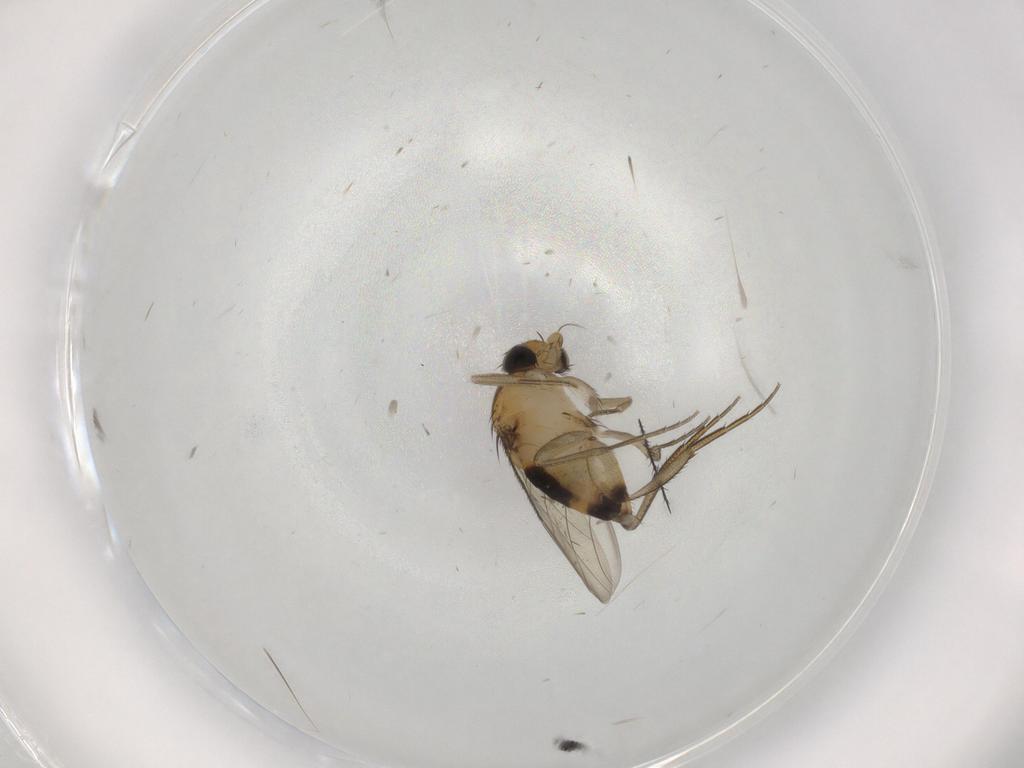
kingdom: Animalia
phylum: Arthropoda
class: Insecta
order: Diptera
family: Phoridae
